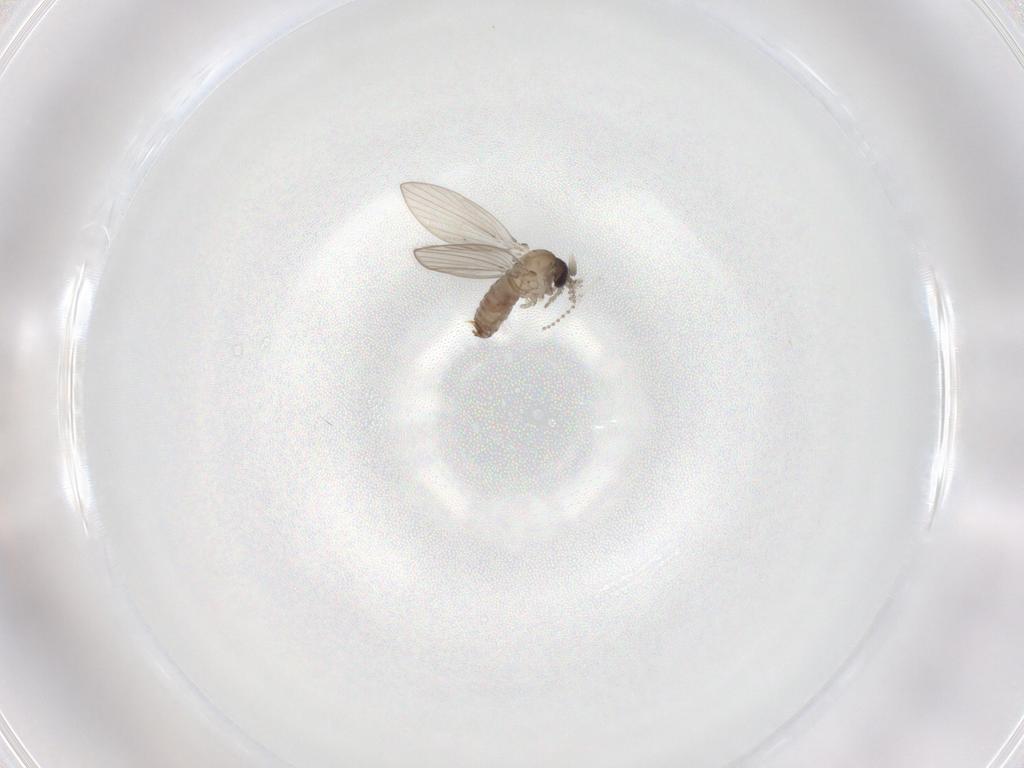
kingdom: Animalia
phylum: Arthropoda
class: Insecta
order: Diptera
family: Psychodidae
